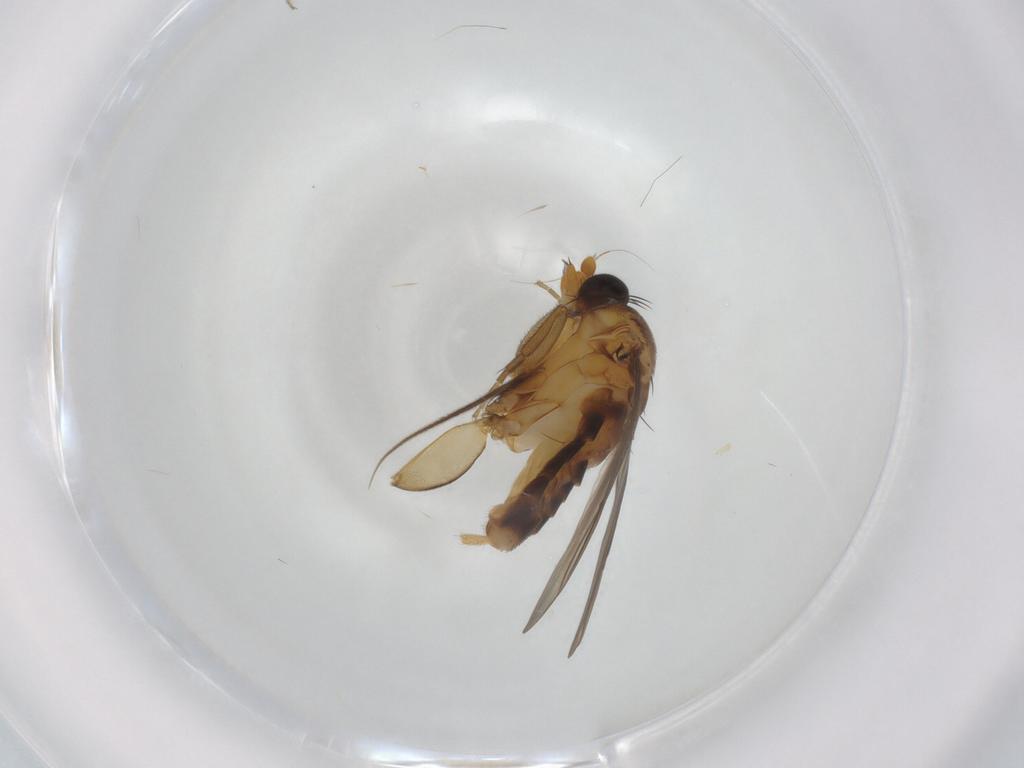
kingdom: Animalia
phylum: Arthropoda
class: Insecta
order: Diptera
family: Phoridae
